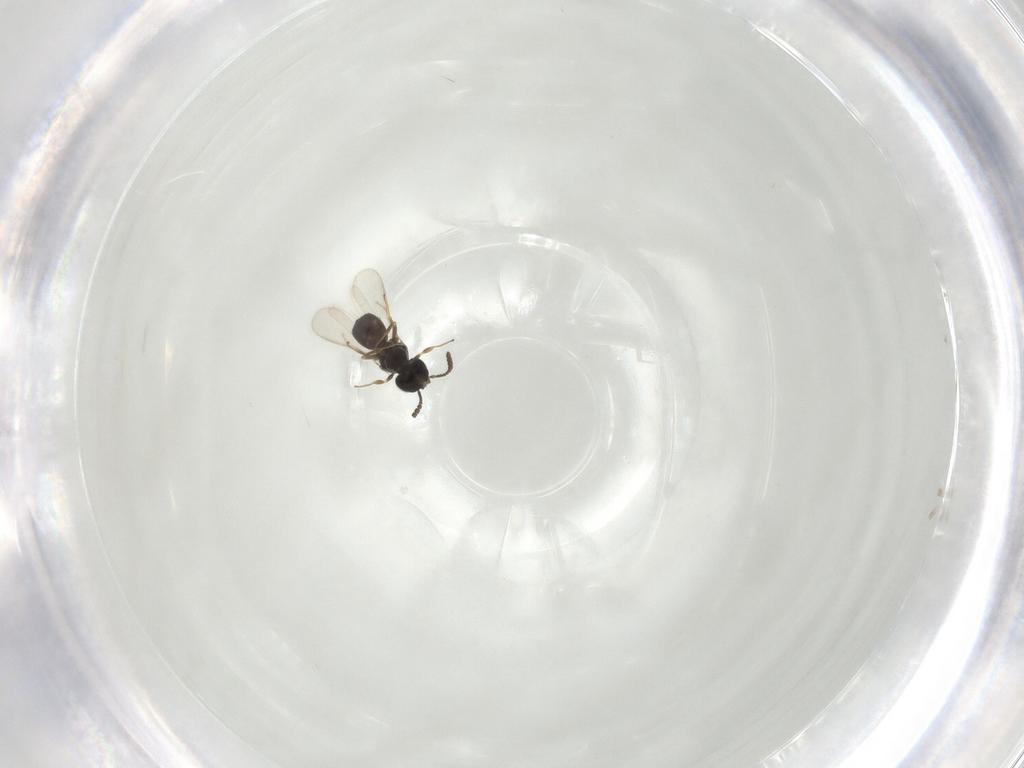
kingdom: Animalia
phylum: Arthropoda
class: Insecta
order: Hymenoptera
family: Scelionidae
